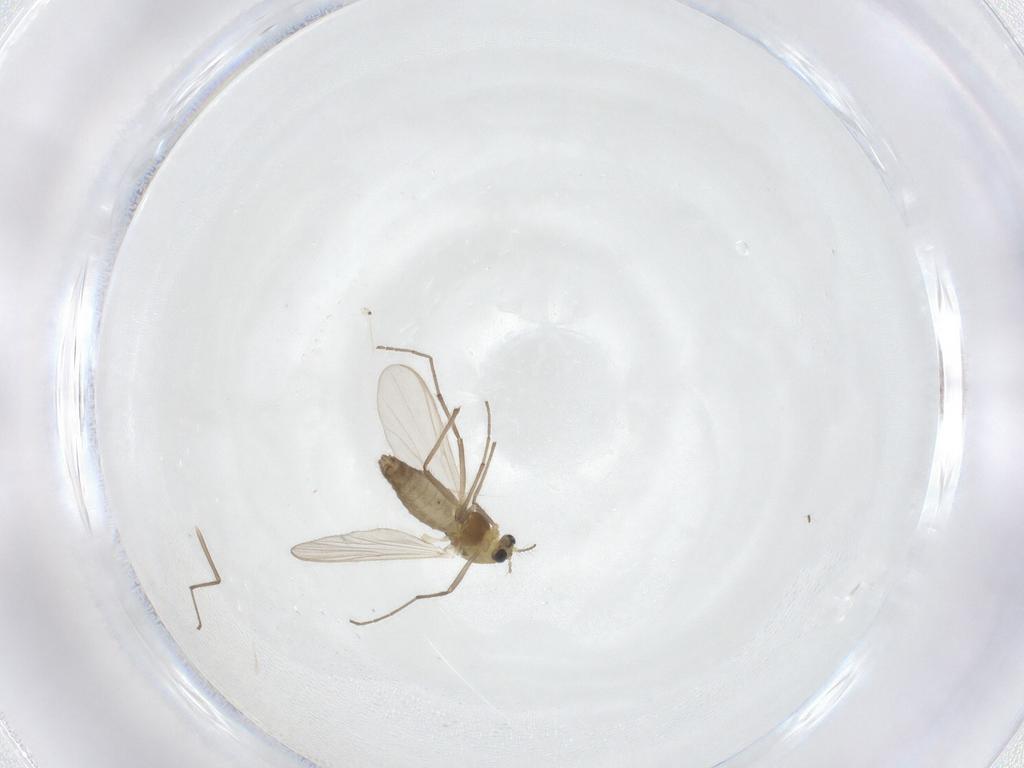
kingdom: Animalia
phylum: Arthropoda
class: Insecta
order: Diptera
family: Chironomidae
